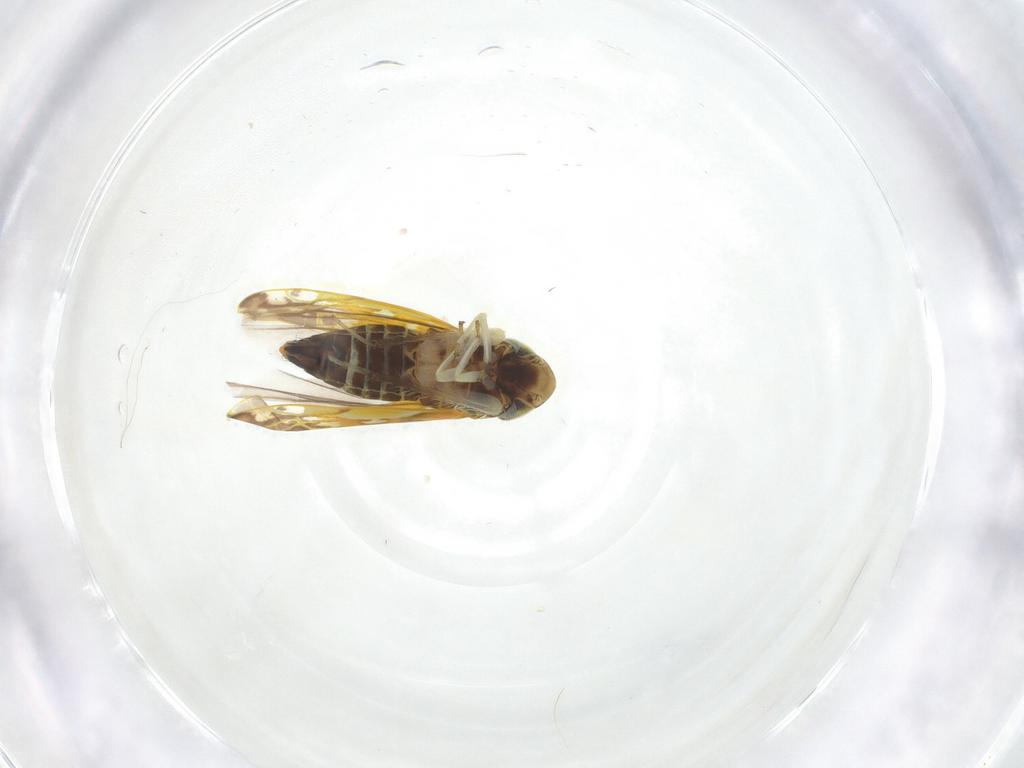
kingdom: Animalia
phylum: Arthropoda
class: Insecta
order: Hemiptera
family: Cicadellidae
